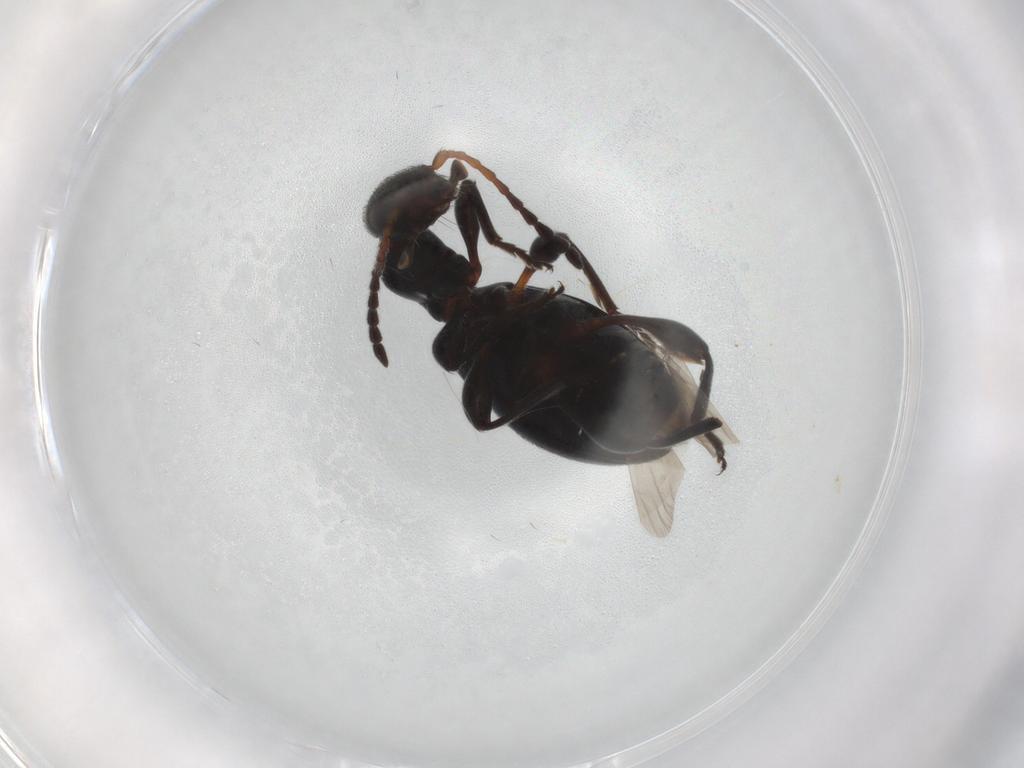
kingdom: Animalia
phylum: Arthropoda
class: Insecta
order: Coleoptera
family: Anthicidae
